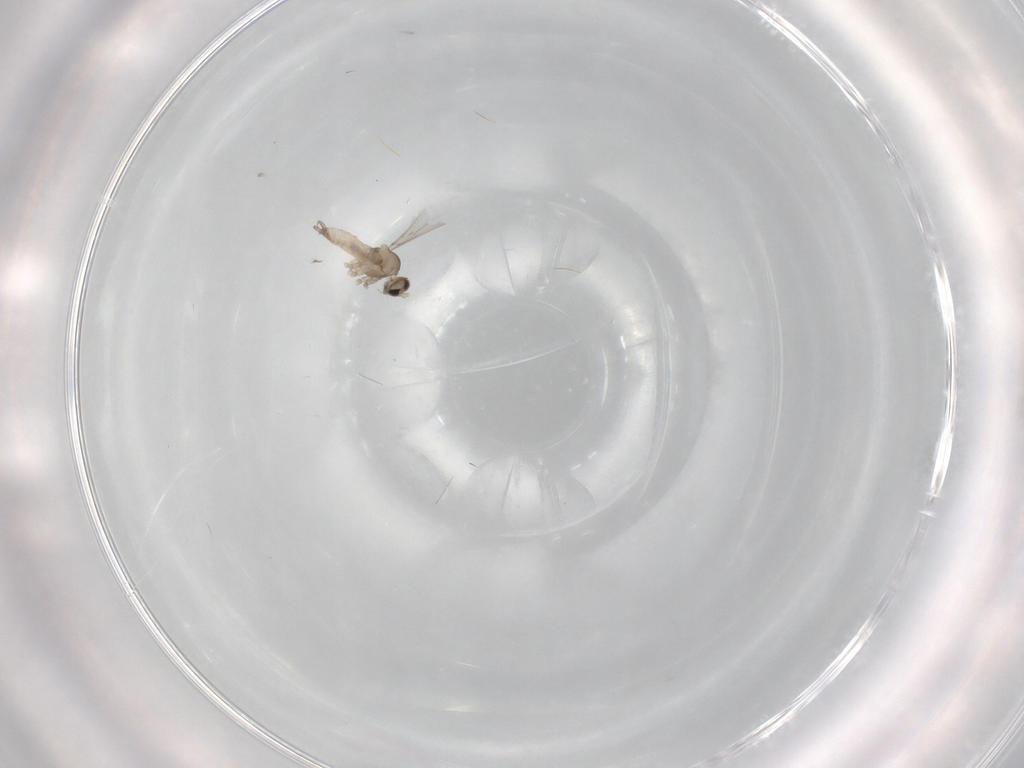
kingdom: Animalia
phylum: Arthropoda
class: Insecta
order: Diptera
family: Cecidomyiidae
